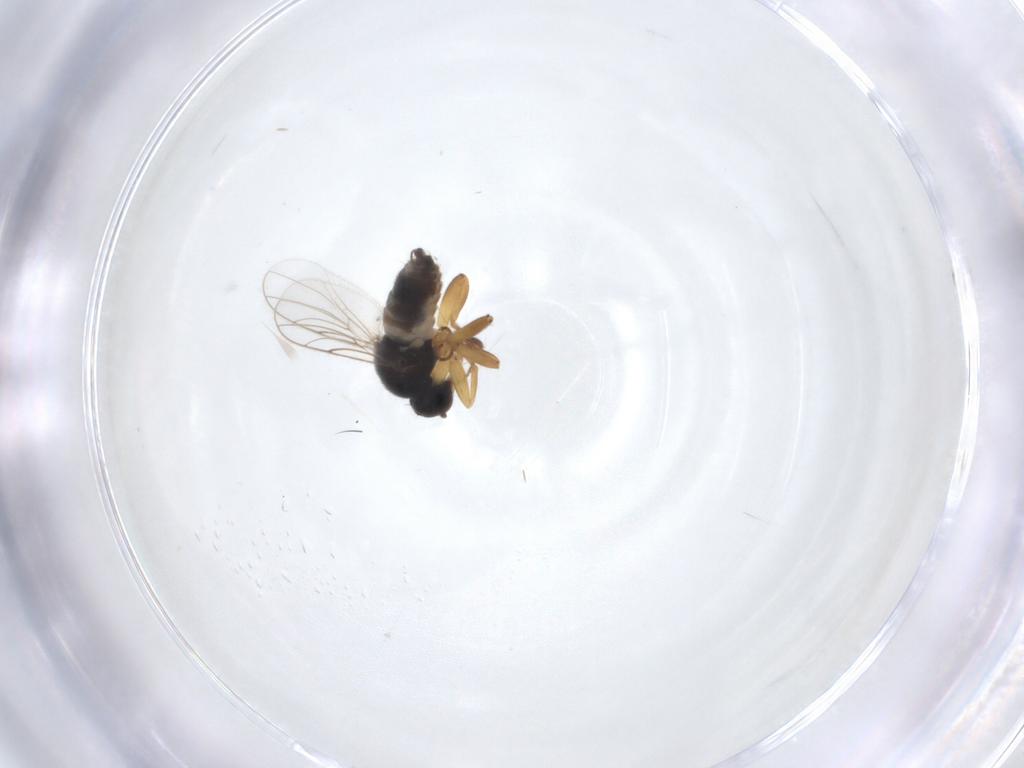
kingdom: Animalia
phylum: Arthropoda
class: Insecta
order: Diptera
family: Hybotidae
